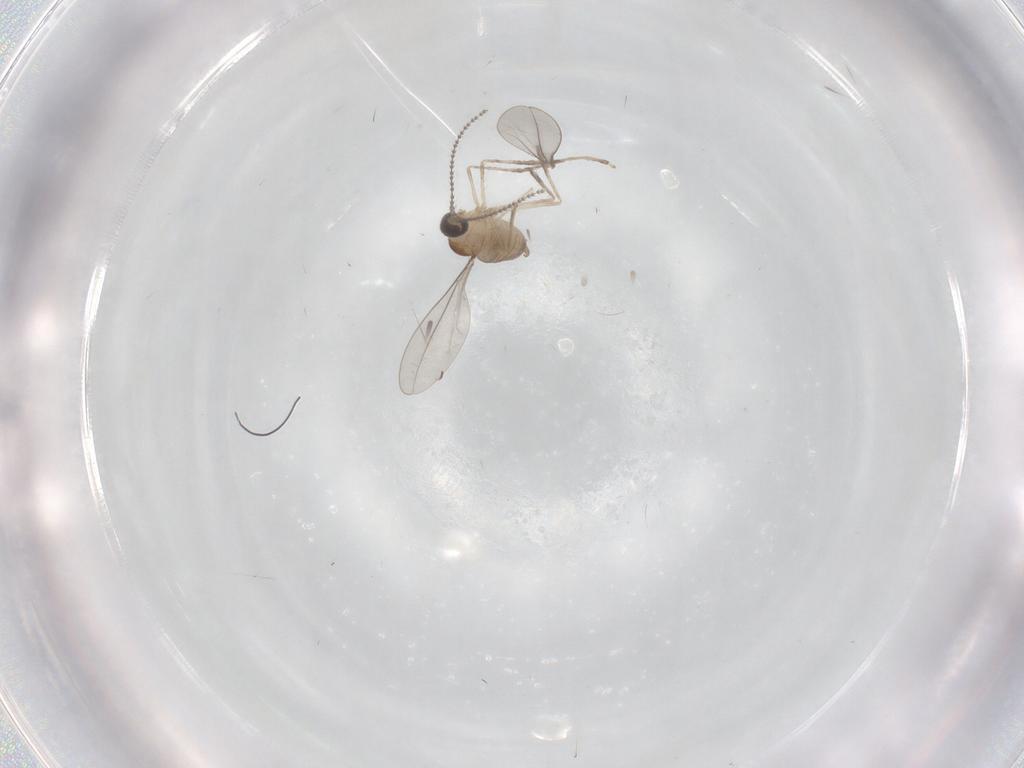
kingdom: Animalia
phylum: Arthropoda
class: Insecta
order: Diptera
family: Cecidomyiidae
